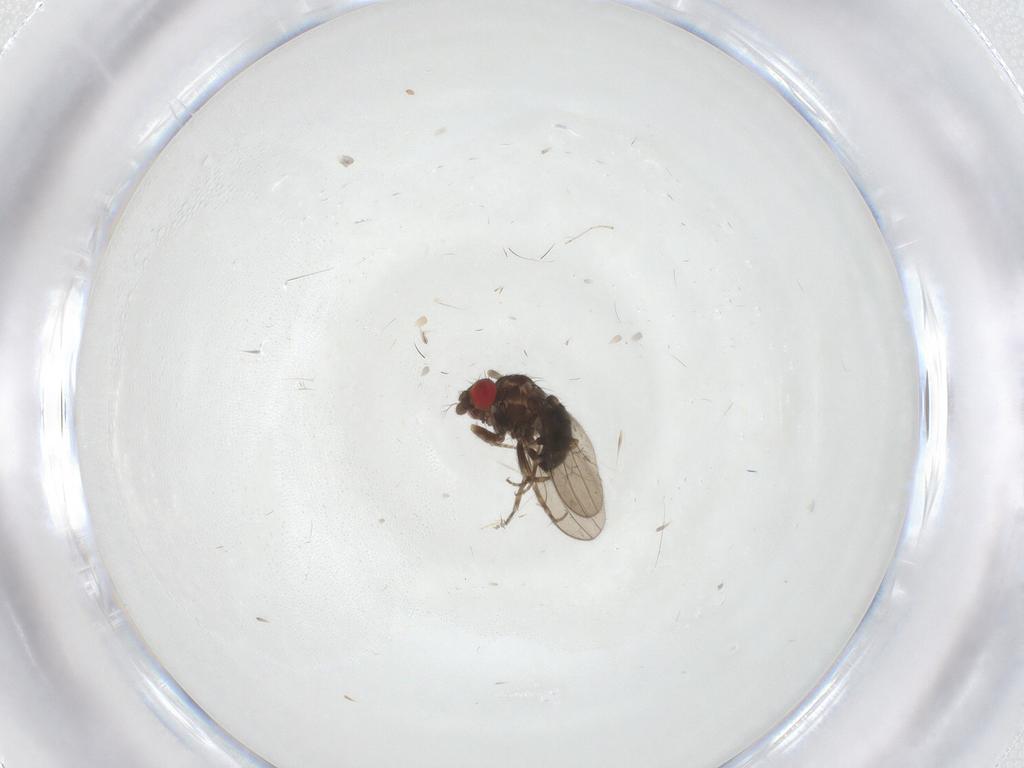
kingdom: Animalia
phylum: Arthropoda
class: Insecta
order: Diptera
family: Drosophilidae
